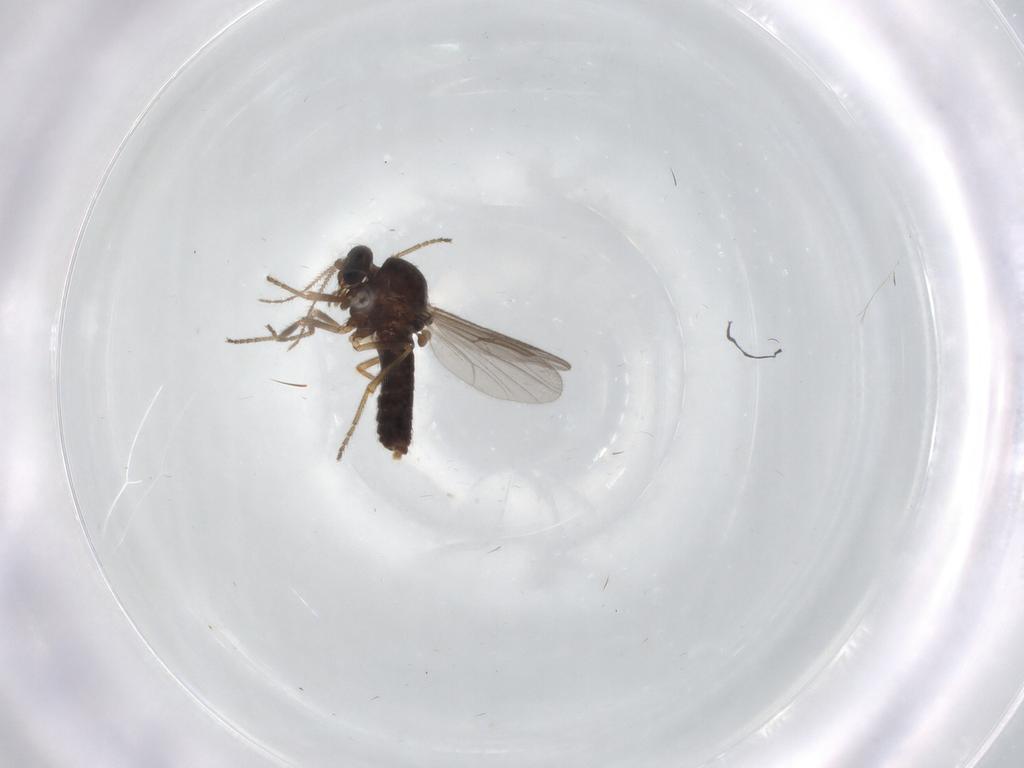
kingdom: Animalia
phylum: Arthropoda
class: Insecta
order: Diptera
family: Ceratopogonidae
